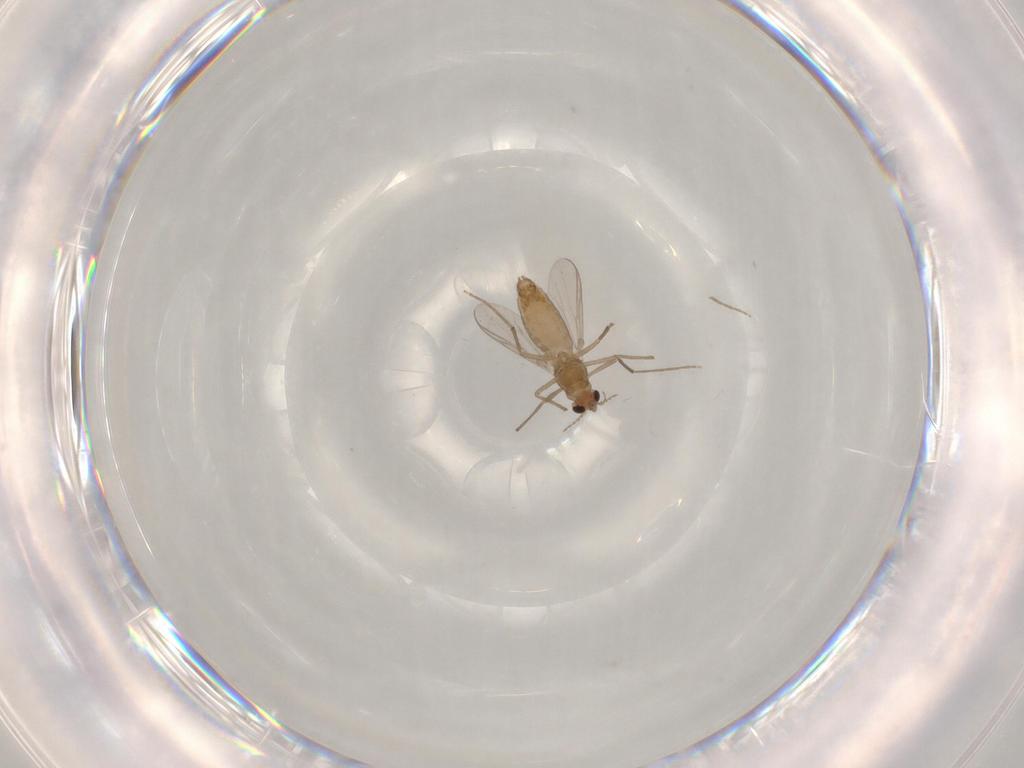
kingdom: Animalia
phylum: Arthropoda
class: Insecta
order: Diptera
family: Chironomidae
